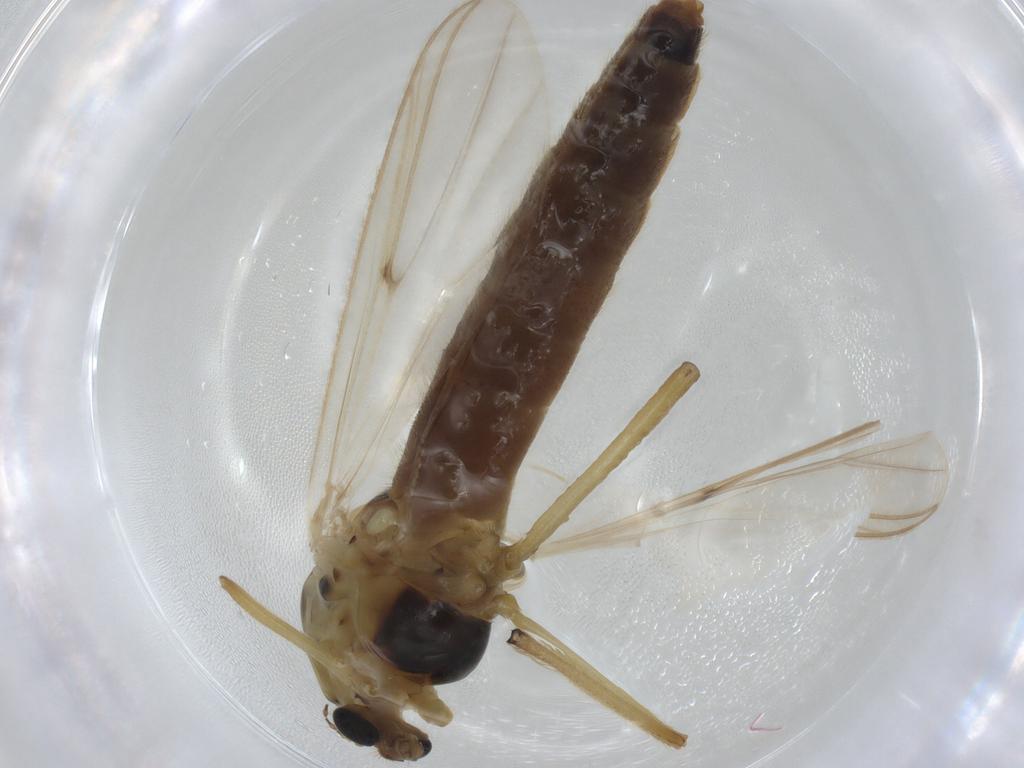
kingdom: Animalia
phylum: Arthropoda
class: Insecta
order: Diptera
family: Chironomidae
